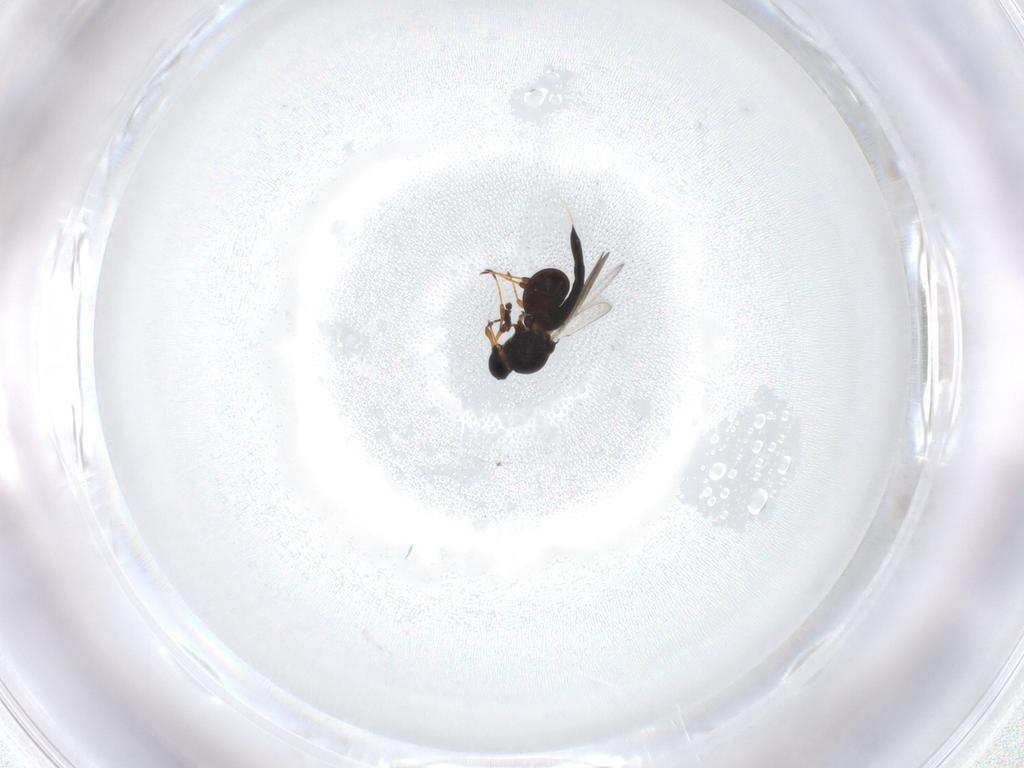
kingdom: Animalia
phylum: Arthropoda
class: Insecta
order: Hymenoptera
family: Platygastridae
